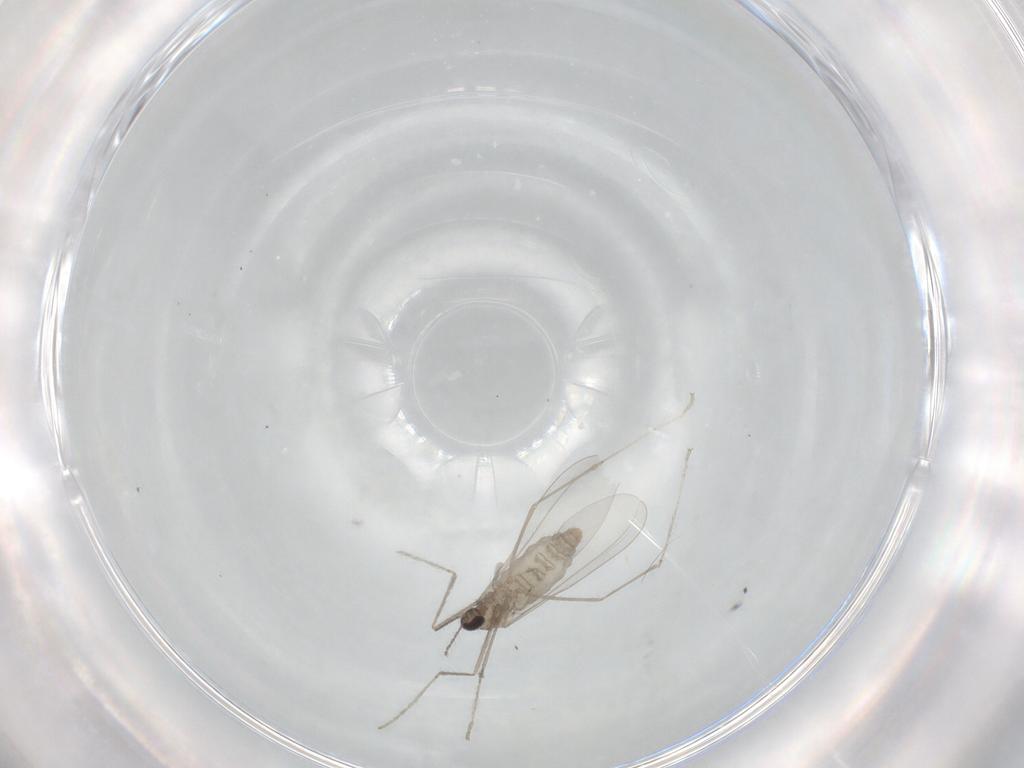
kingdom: Animalia
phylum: Arthropoda
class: Insecta
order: Diptera
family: Cecidomyiidae
